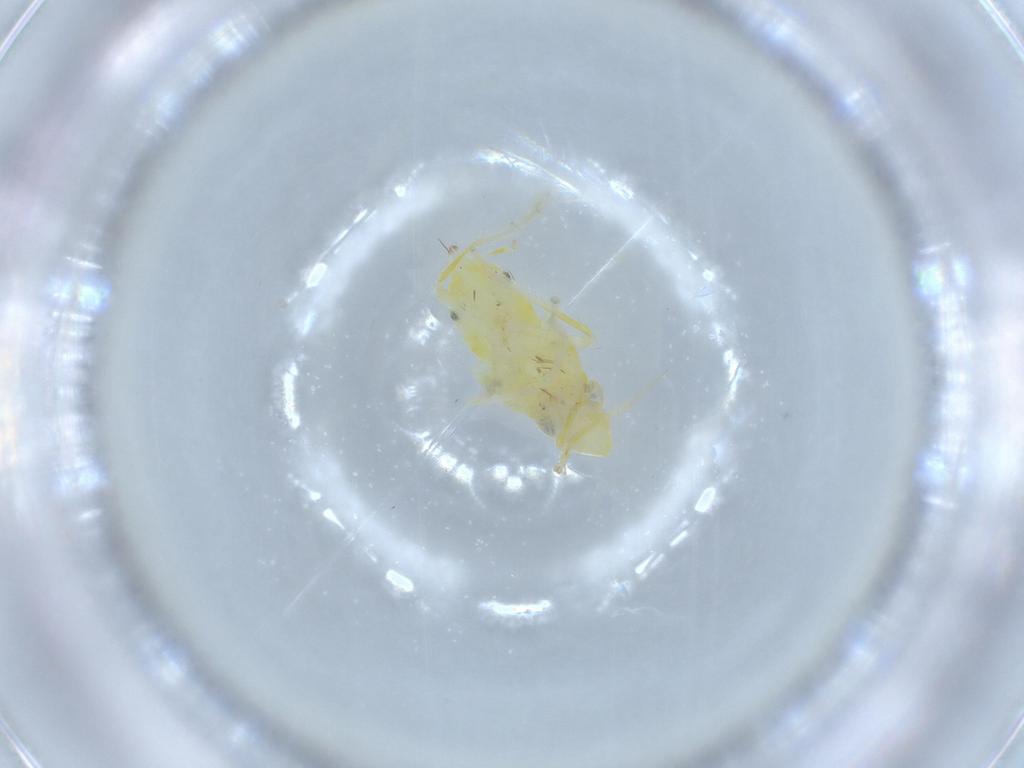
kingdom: Animalia
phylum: Arthropoda
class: Insecta
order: Hemiptera
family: Cicadellidae
